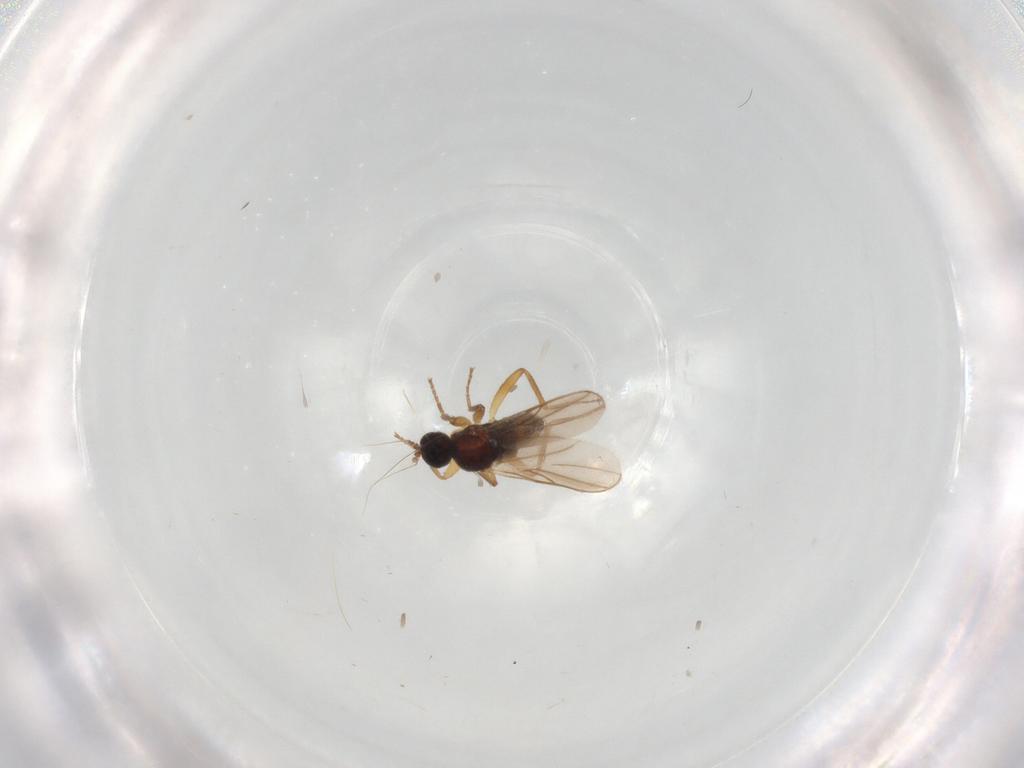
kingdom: Animalia
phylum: Arthropoda
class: Insecta
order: Diptera
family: Hybotidae
